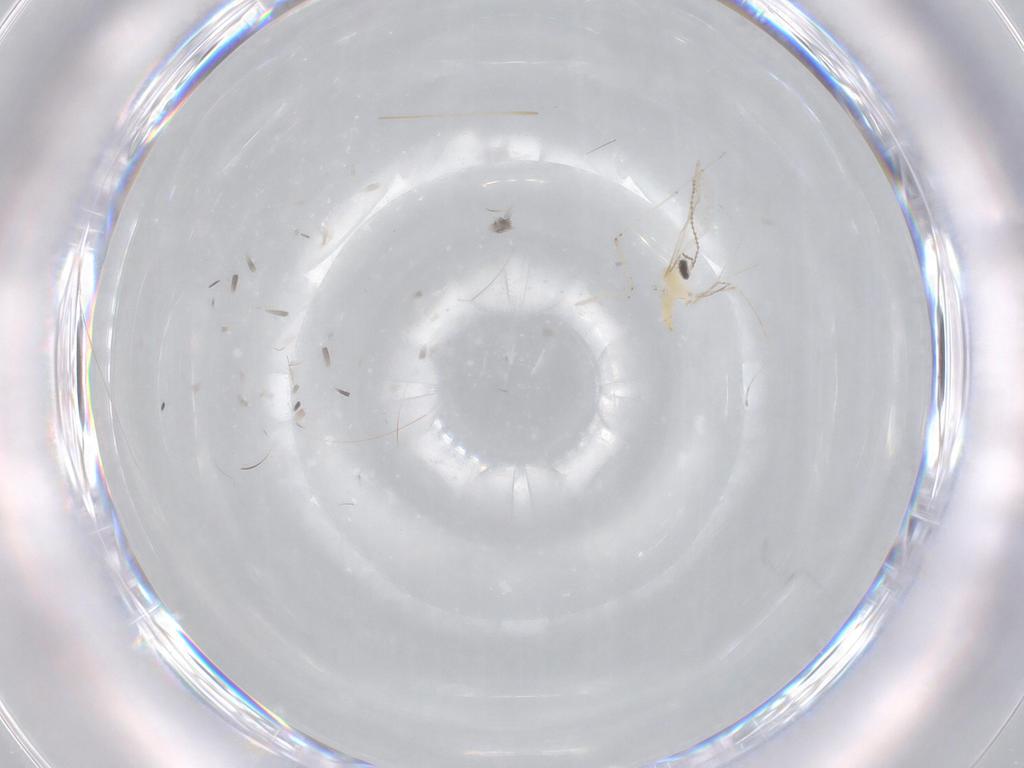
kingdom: Animalia
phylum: Arthropoda
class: Insecta
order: Diptera
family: Cecidomyiidae
